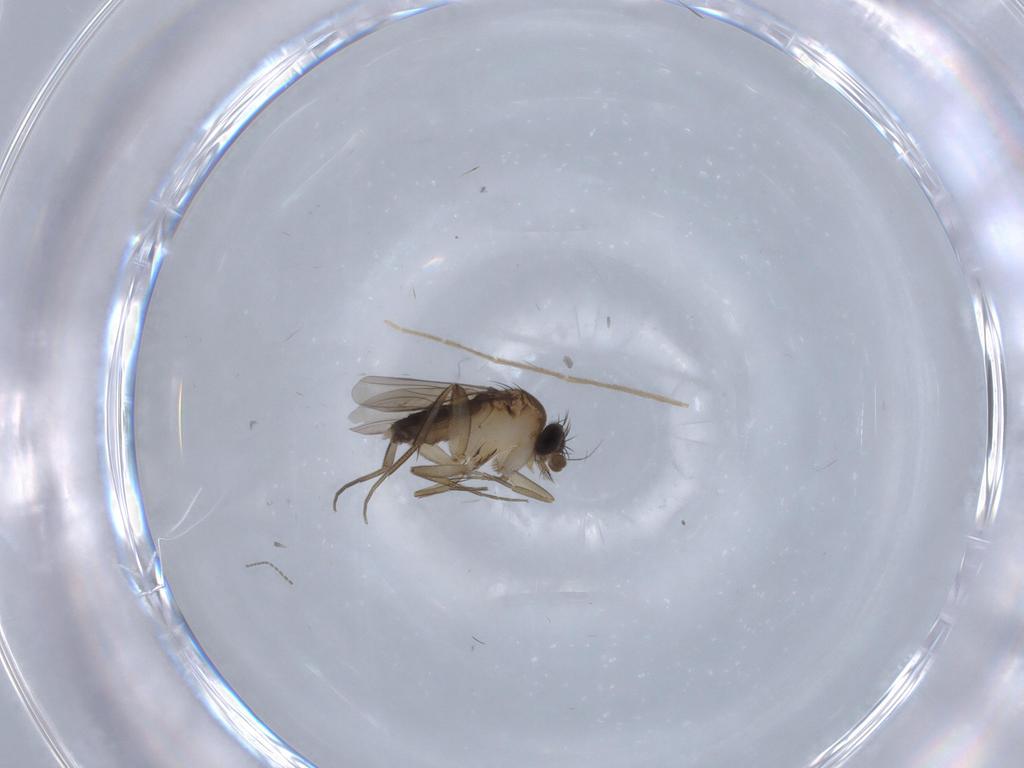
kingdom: Animalia
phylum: Arthropoda
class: Insecta
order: Diptera
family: Phoridae
